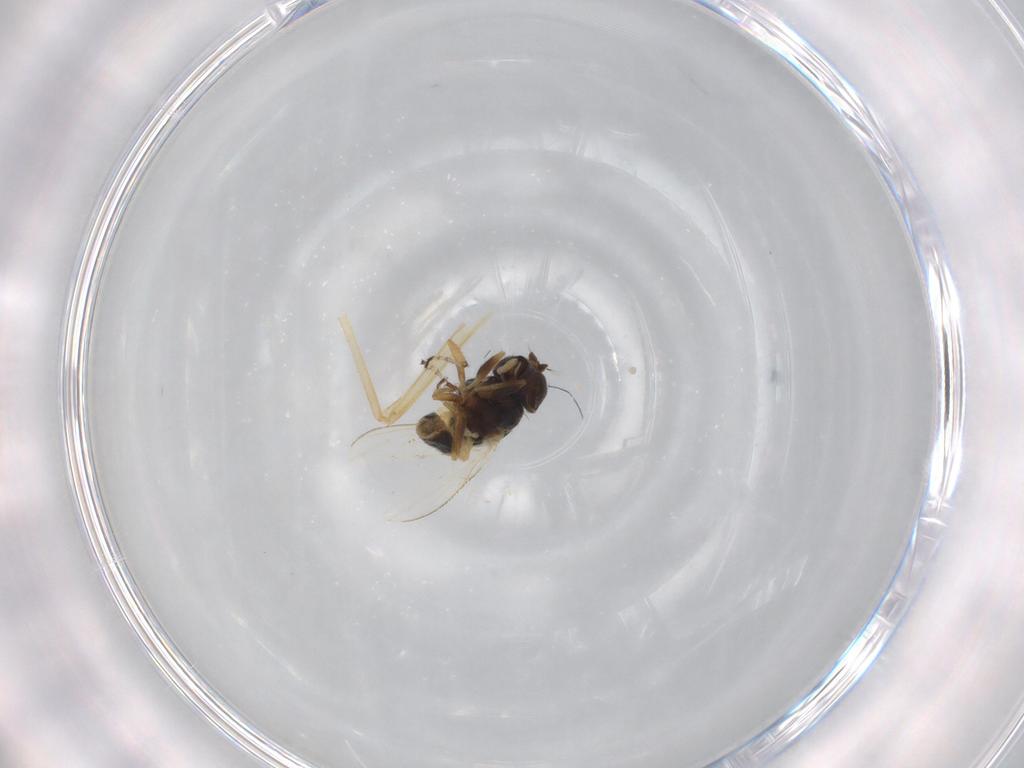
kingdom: Animalia
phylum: Arthropoda
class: Insecta
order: Diptera
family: Ephydridae
